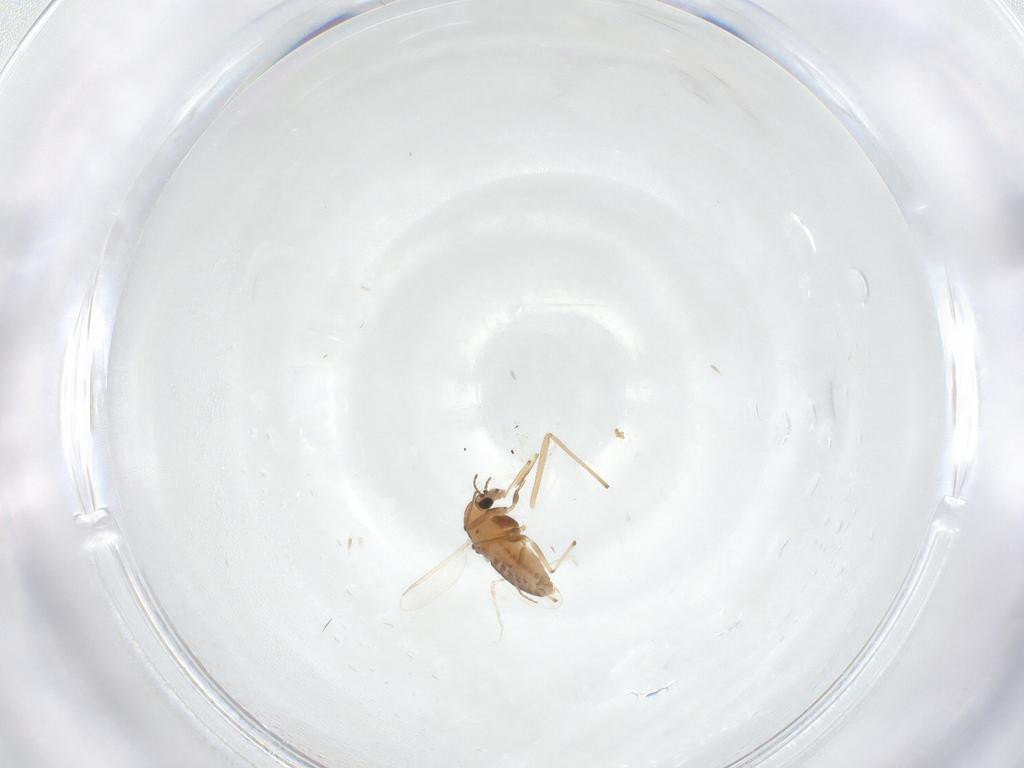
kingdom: Animalia
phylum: Arthropoda
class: Insecta
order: Diptera
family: Chironomidae
